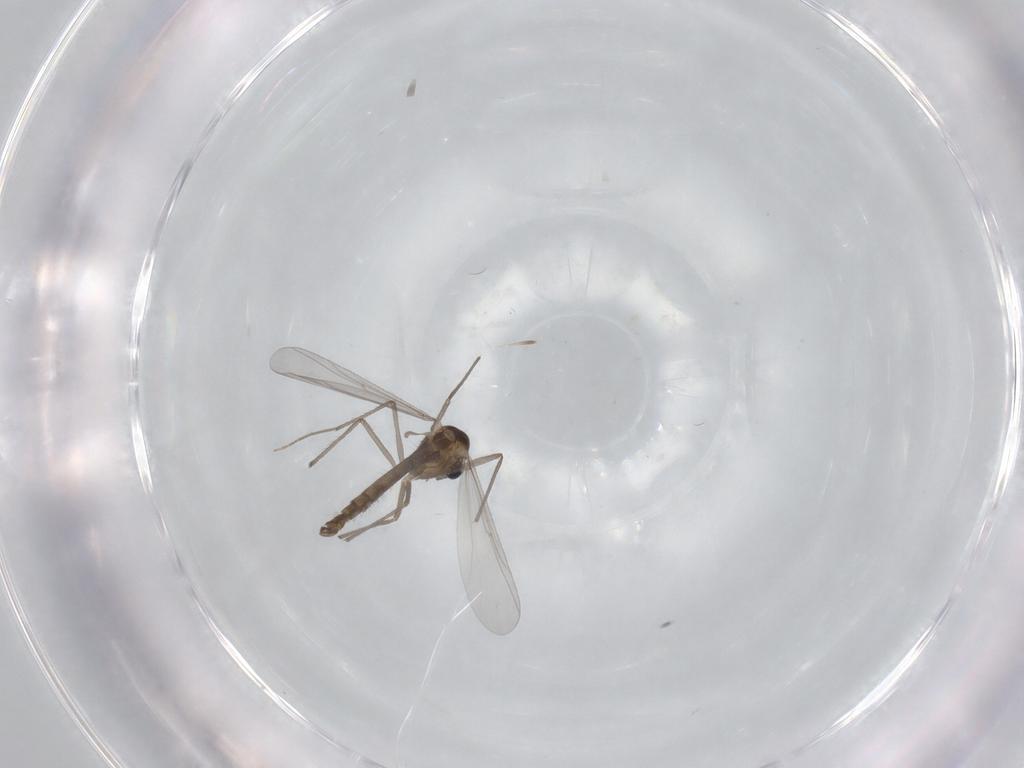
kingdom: Animalia
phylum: Arthropoda
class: Insecta
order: Diptera
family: Chironomidae
